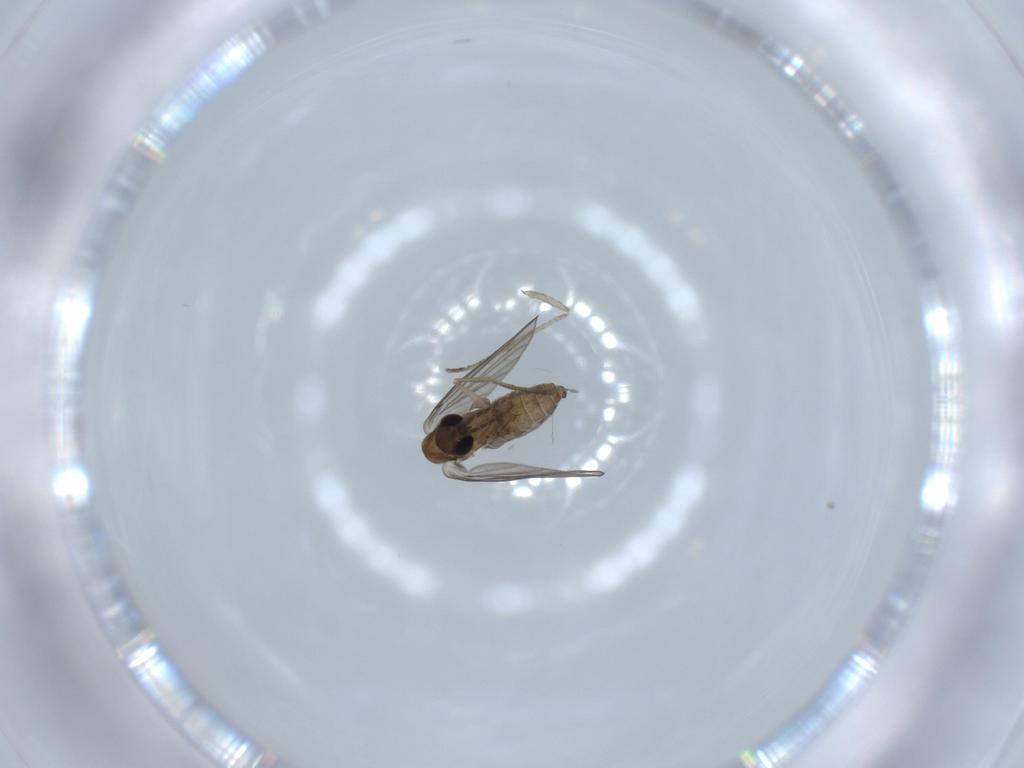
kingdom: Animalia
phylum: Arthropoda
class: Insecta
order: Diptera
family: Psychodidae
